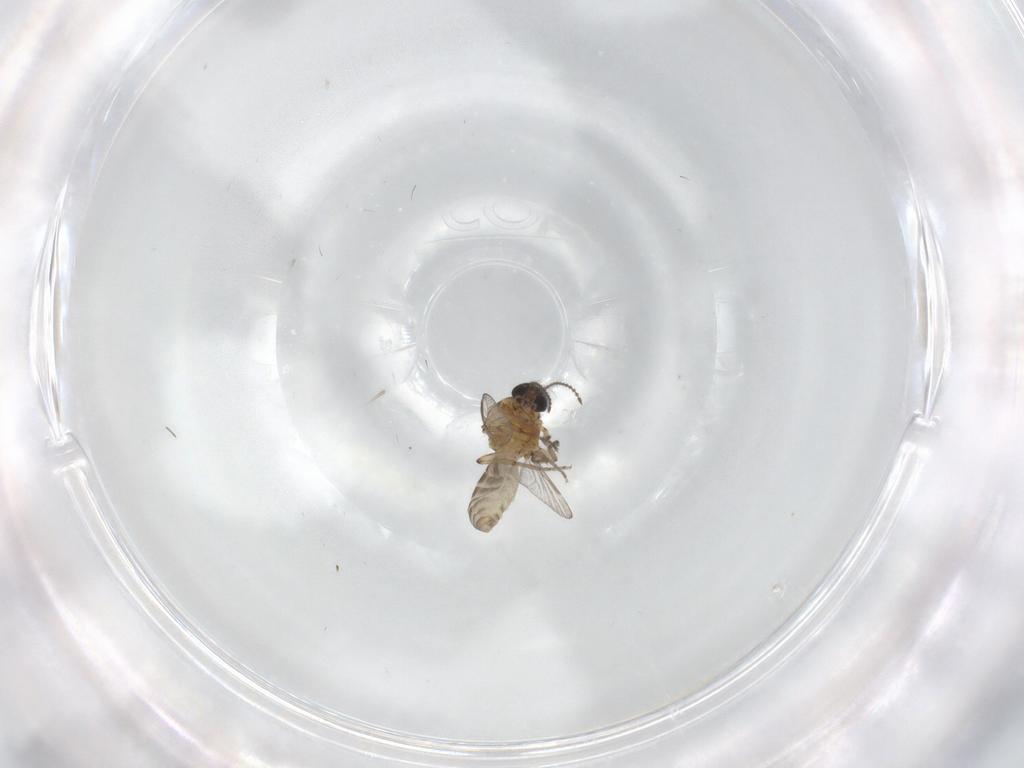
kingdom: Animalia
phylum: Arthropoda
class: Insecta
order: Diptera
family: Ceratopogonidae
